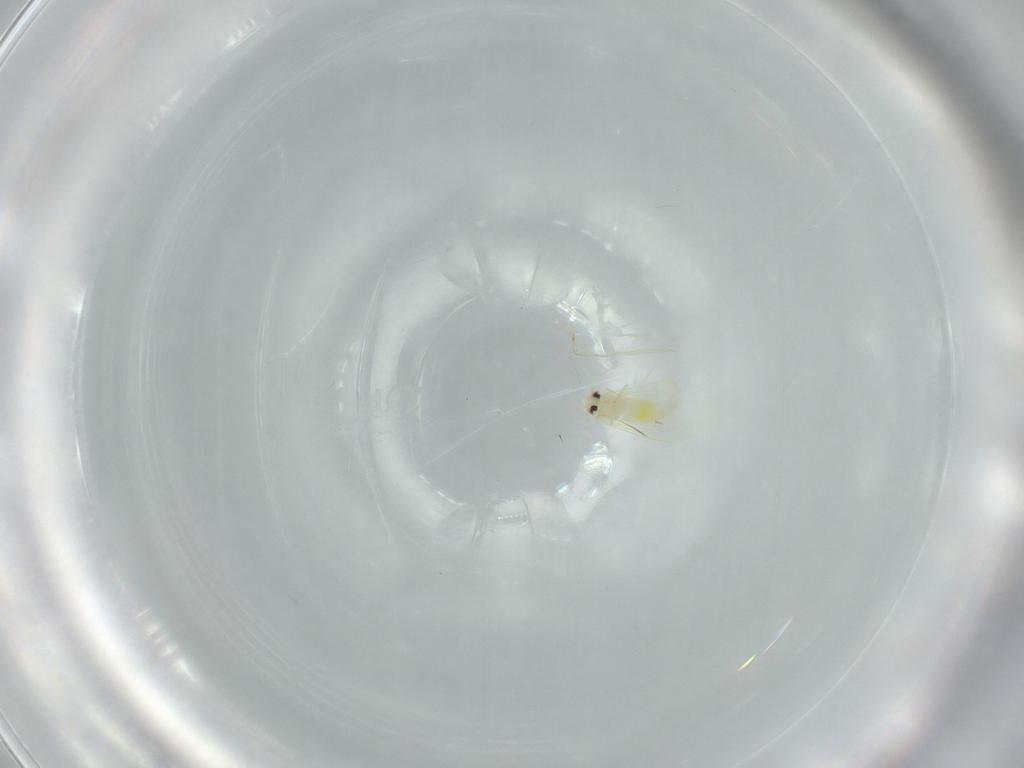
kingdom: Animalia
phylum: Arthropoda
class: Insecta
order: Hemiptera
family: Aleyrodidae
